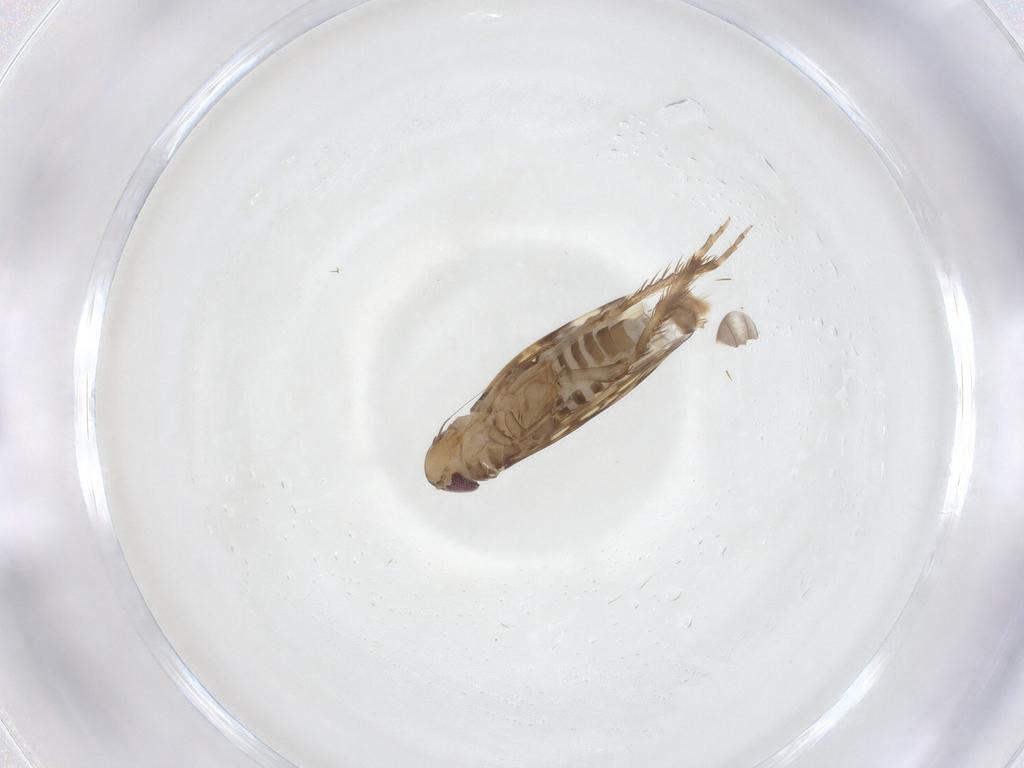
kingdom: Animalia
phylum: Arthropoda
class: Insecta
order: Hemiptera
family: Cicadellidae
